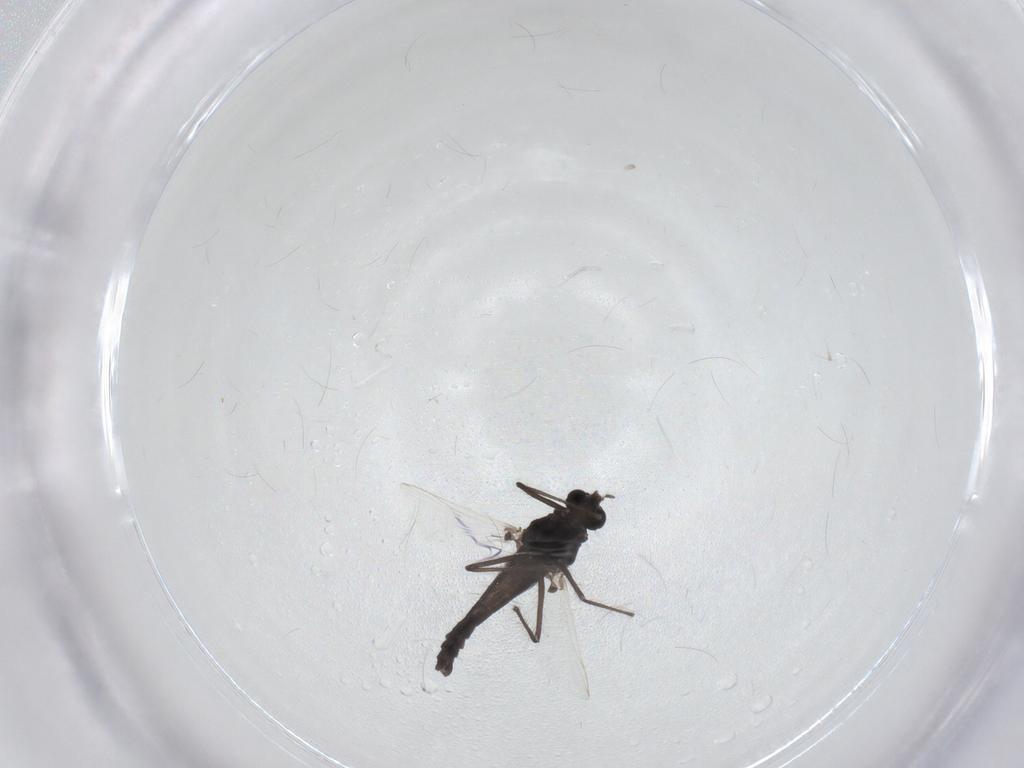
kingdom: Animalia
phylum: Arthropoda
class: Insecta
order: Diptera
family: Chironomidae
